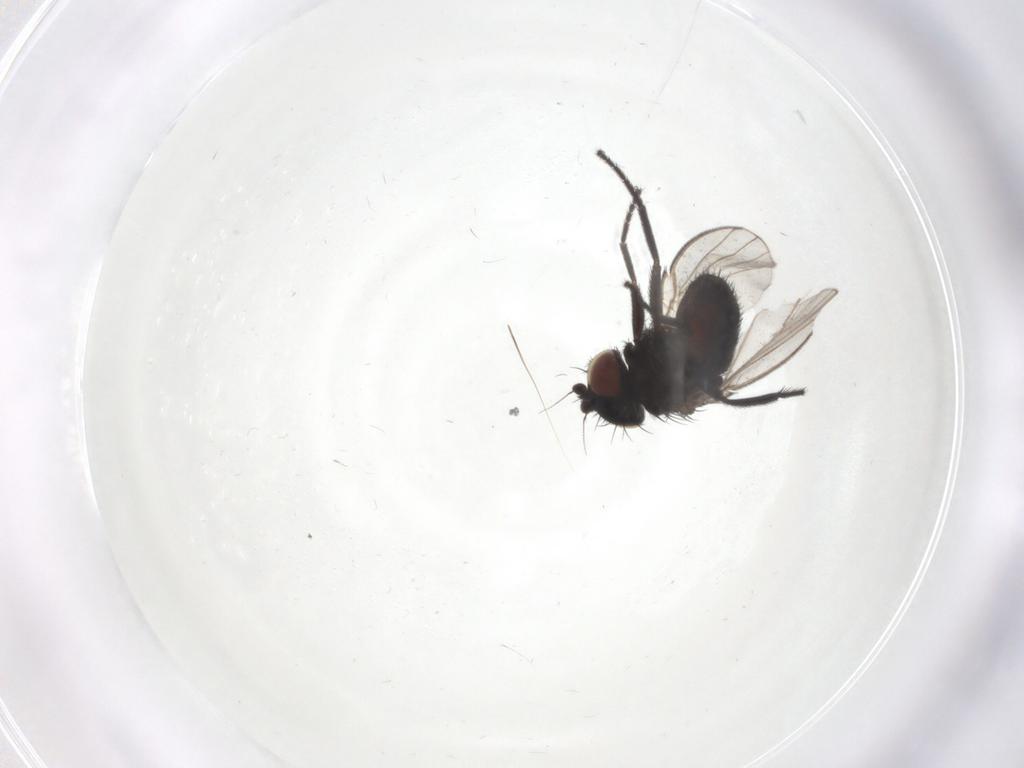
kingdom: Animalia
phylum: Arthropoda
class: Insecta
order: Diptera
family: Milichiidae
